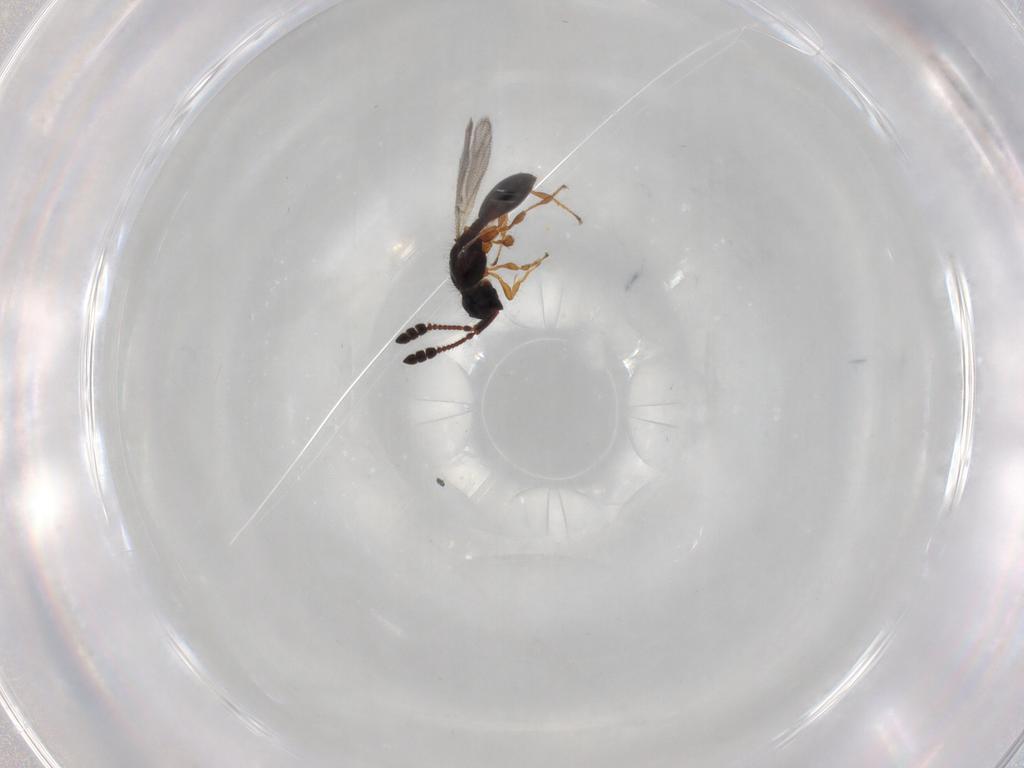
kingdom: Animalia
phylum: Arthropoda
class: Insecta
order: Hymenoptera
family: Diapriidae
